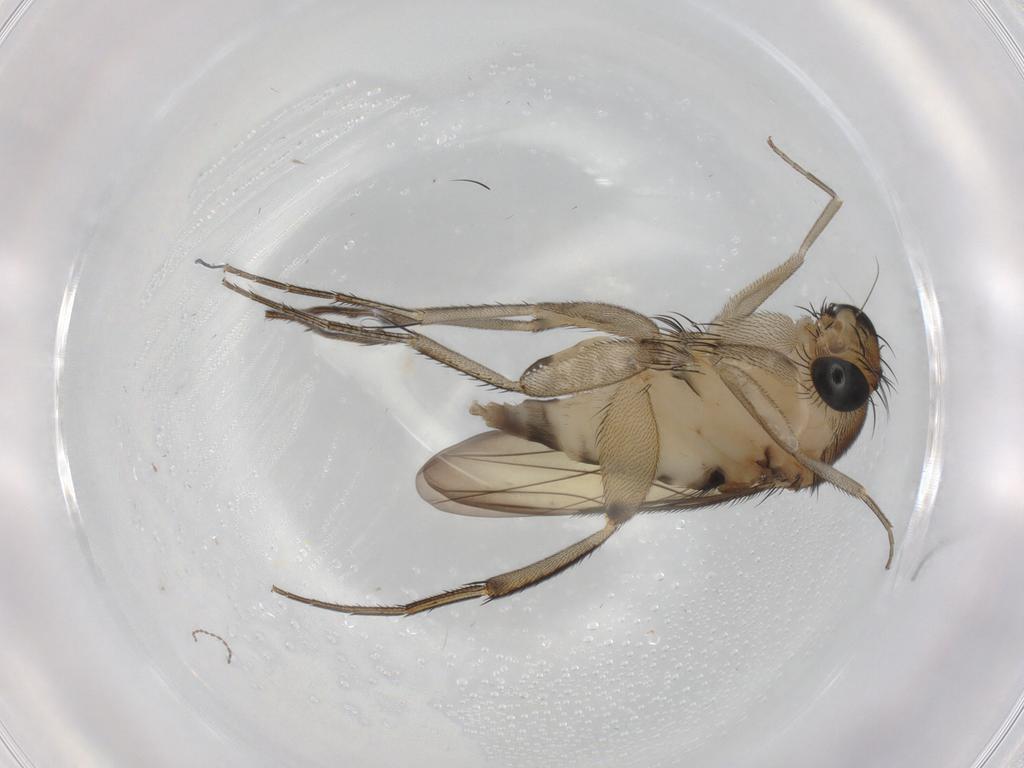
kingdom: Animalia
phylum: Arthropoda
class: Insecta
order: Diptera
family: Phoridae
